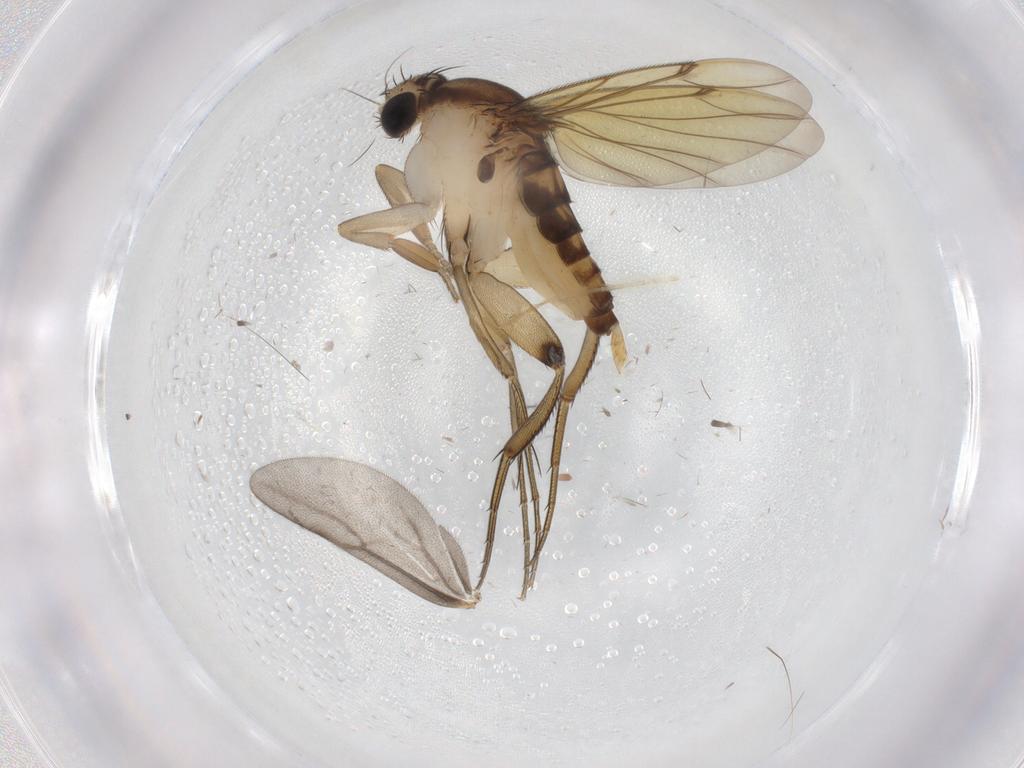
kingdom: Animalia
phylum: Arthropoda
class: Insecta
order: Diptera
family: Phoridae
